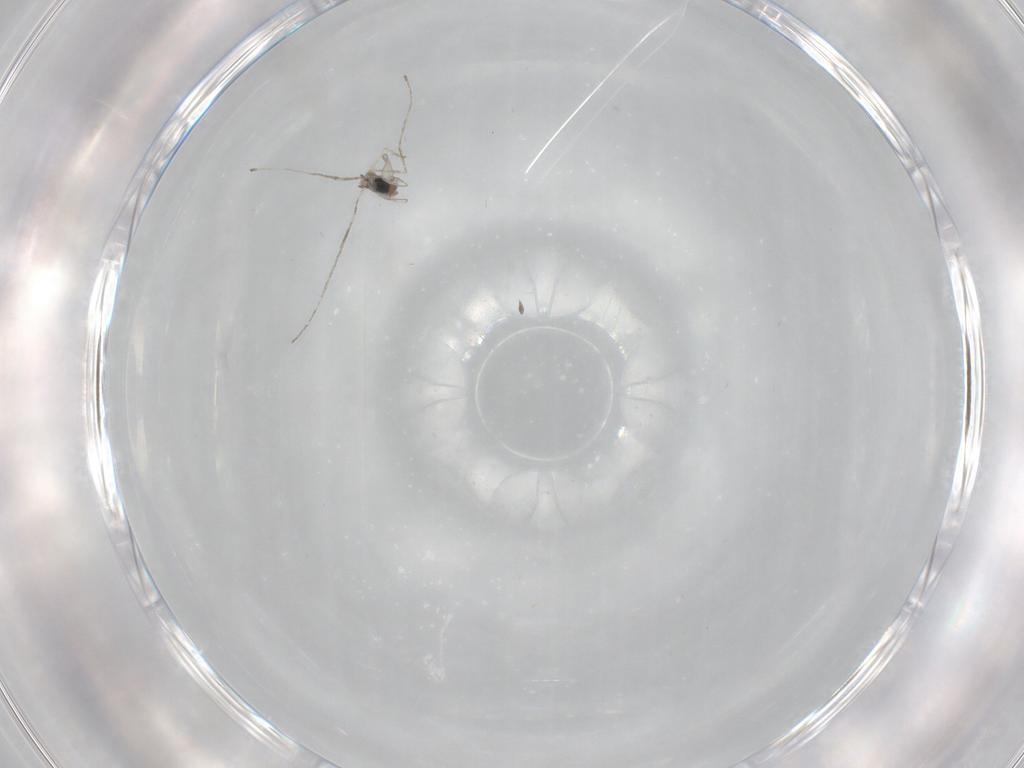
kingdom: Animalia
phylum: Arthropoda
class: Insecta
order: Diptera
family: Cecidomyiidae
